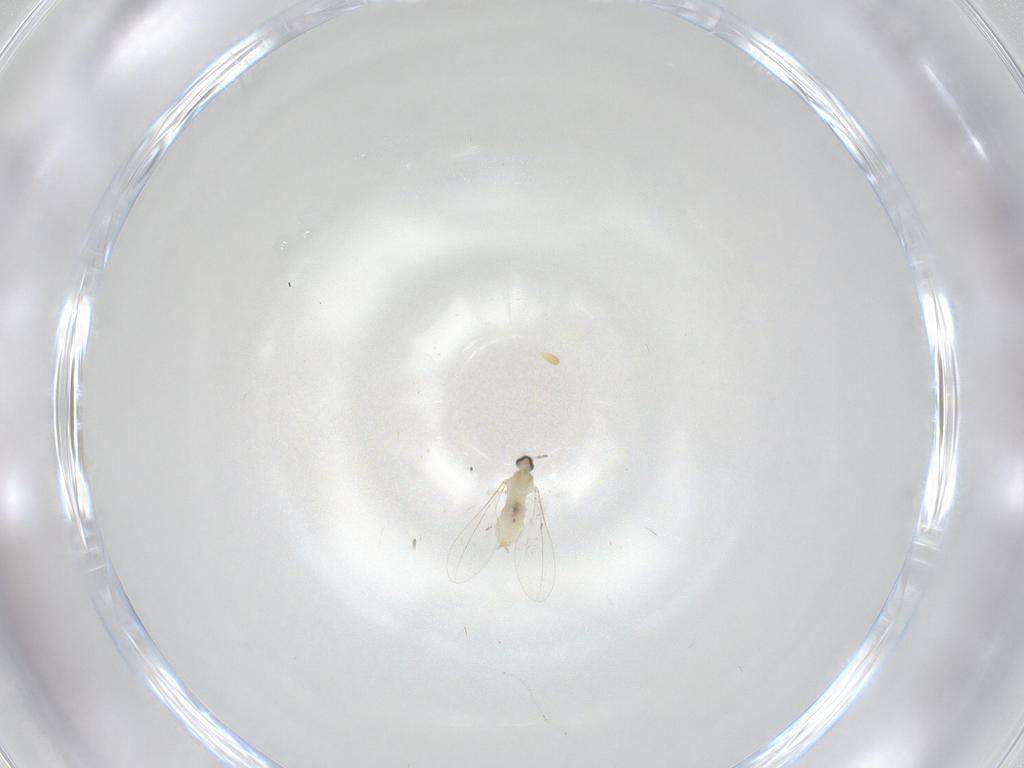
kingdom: Animalia
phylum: Arthropoda
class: Insecta
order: Diptera
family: Cecidomyiidae
